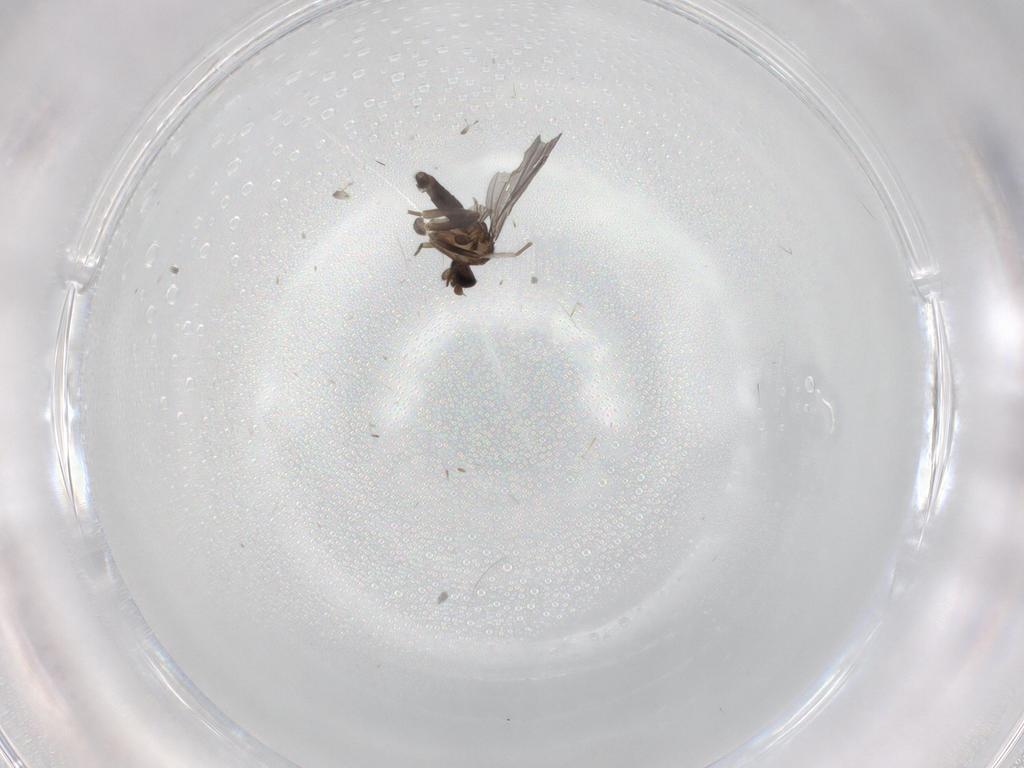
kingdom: Animalia
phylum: Arthropoda
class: Insecta
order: Diptera
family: Phoridae
